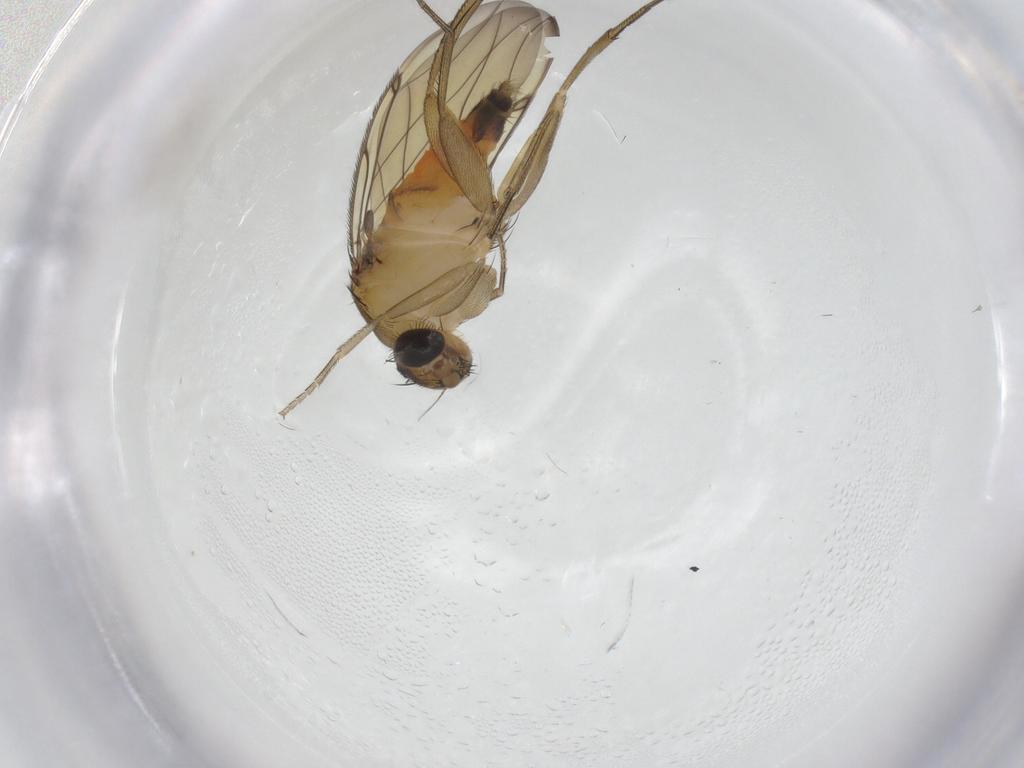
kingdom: Animalia
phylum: Arthropoda
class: Insecta
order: Diptera
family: Phoridae
